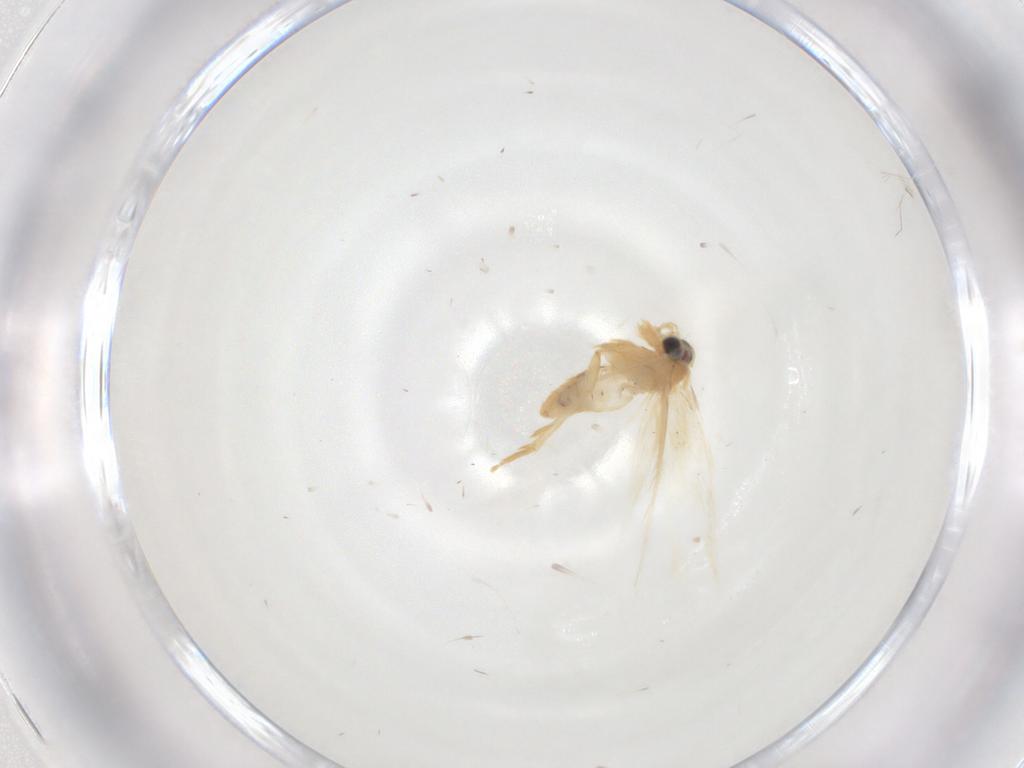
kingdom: Animalia
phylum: Arthropoda
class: Insecta
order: Lepidoptera
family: Nepticulidae
